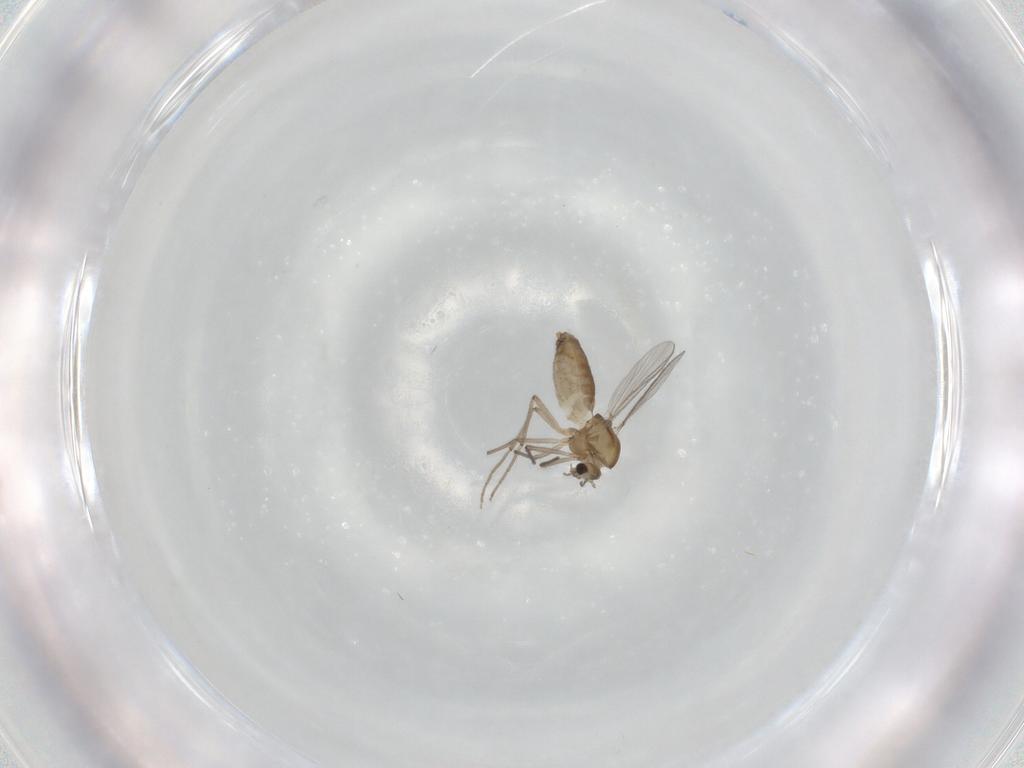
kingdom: Animalia
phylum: Arthropoda
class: Insecta
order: Diptera
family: Chironomidae
